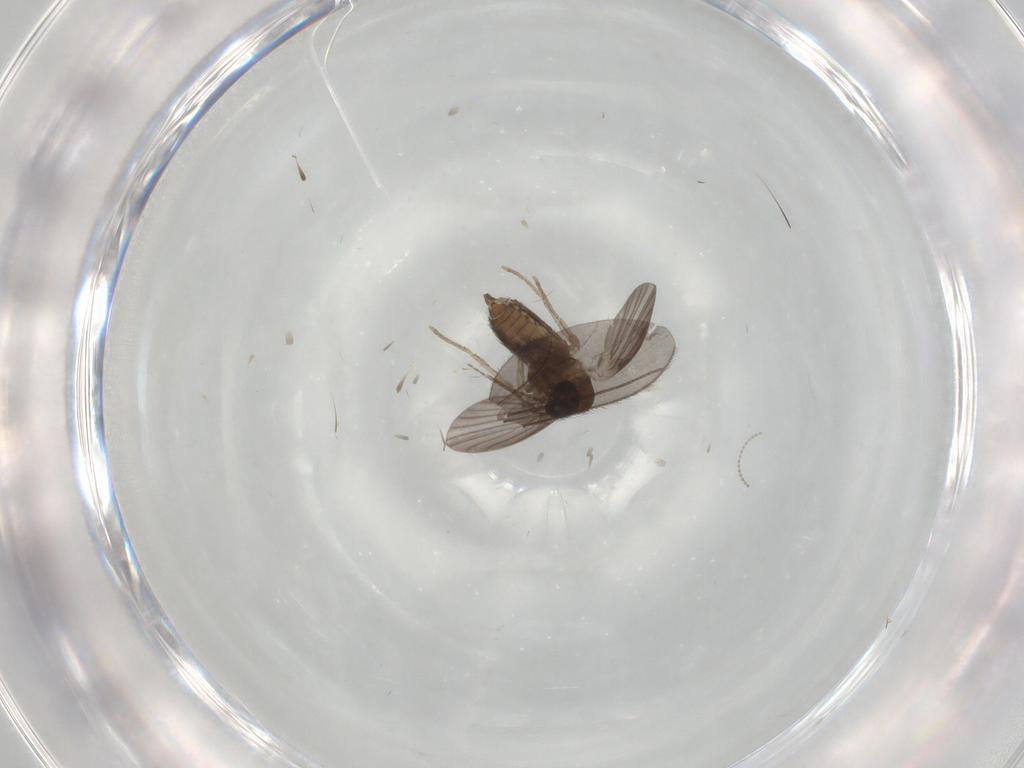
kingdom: Animalia
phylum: Arthropoda
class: Insecta
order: Diptera
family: Cecidomyiidae
